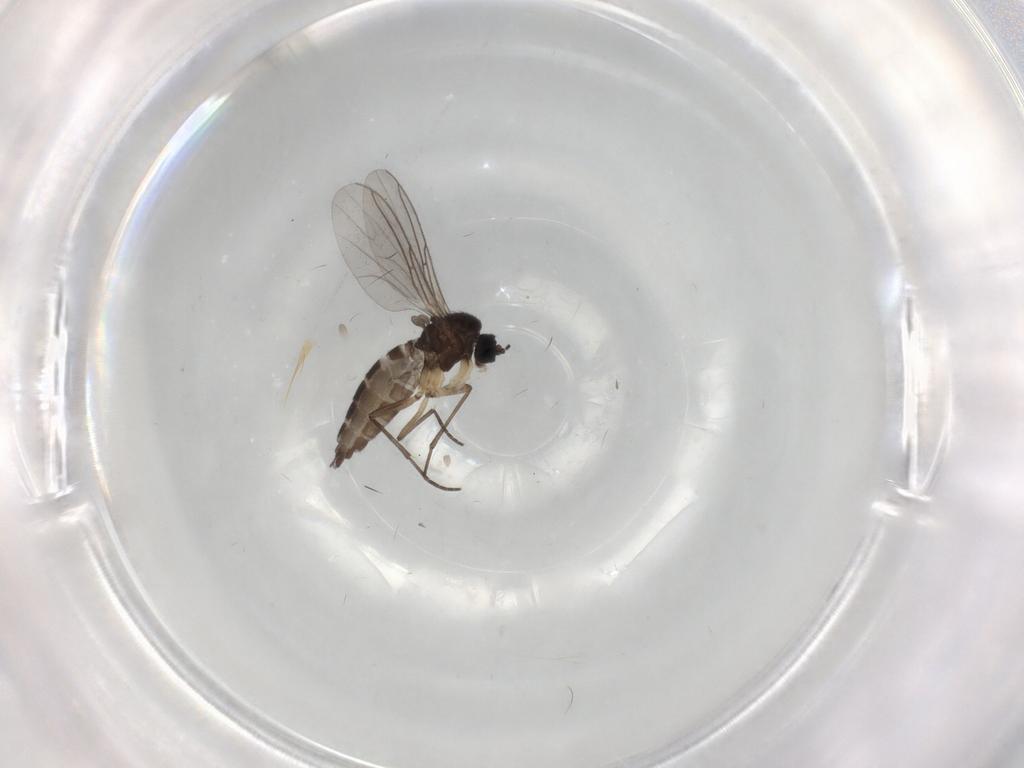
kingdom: Animalia
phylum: Arthropoda
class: Insecta
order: Diptera
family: Sciaridae
